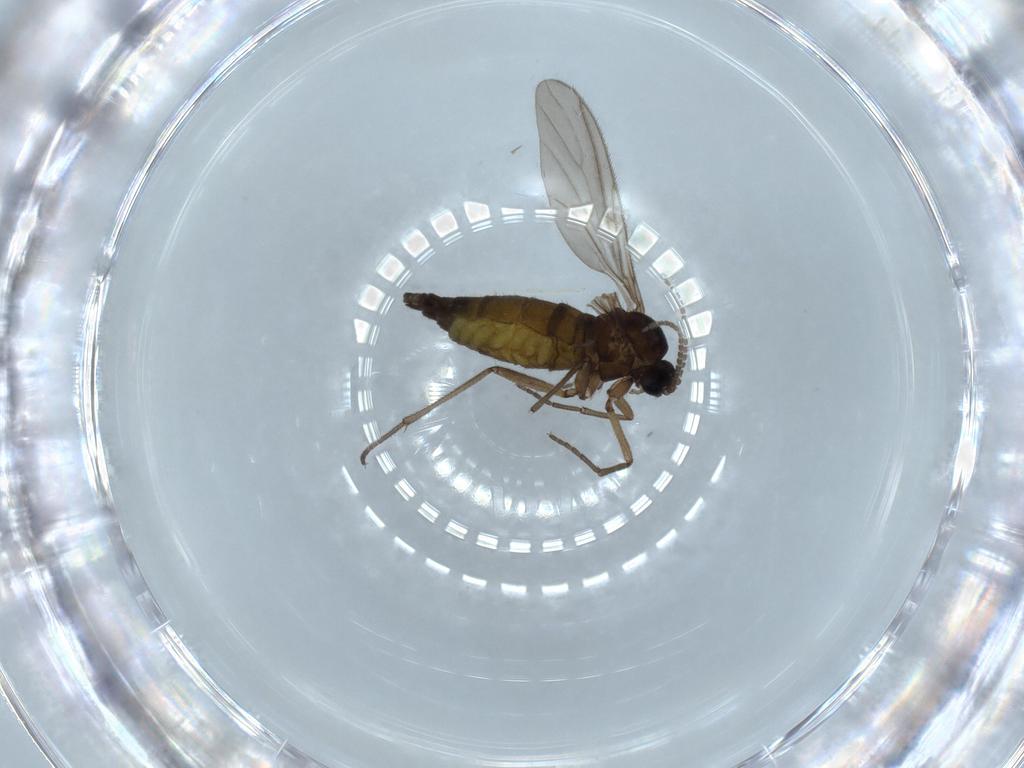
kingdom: Animalia
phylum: Arthropoda
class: Insecta
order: Diptera
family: Sciaridae
